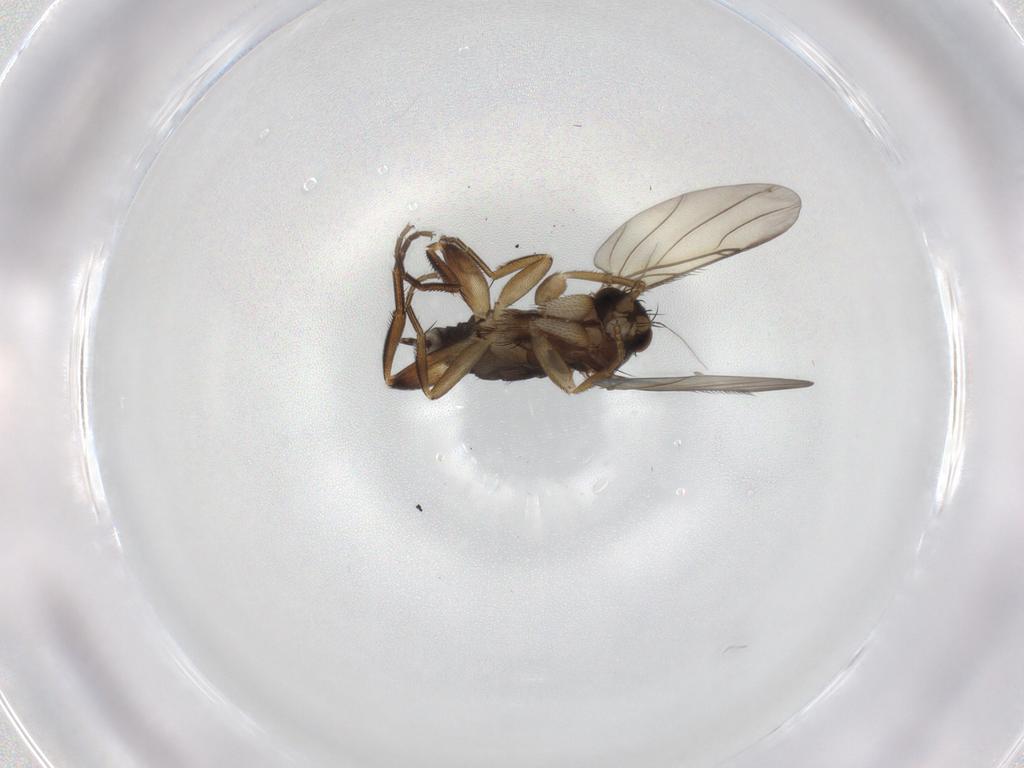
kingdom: Animalia
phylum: Arthropoda
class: Insecta
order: Diptera
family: Phoridae
